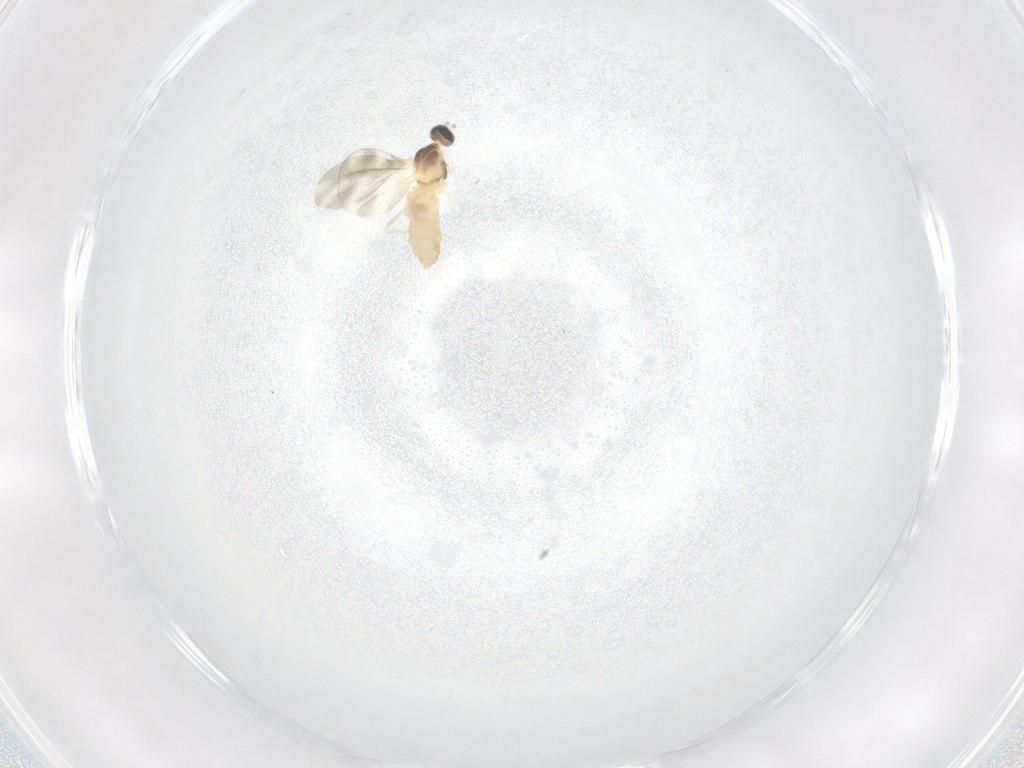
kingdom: Animalia
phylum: Arthropoda
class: Insecta
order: Diptera
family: Cecidomyiidae
